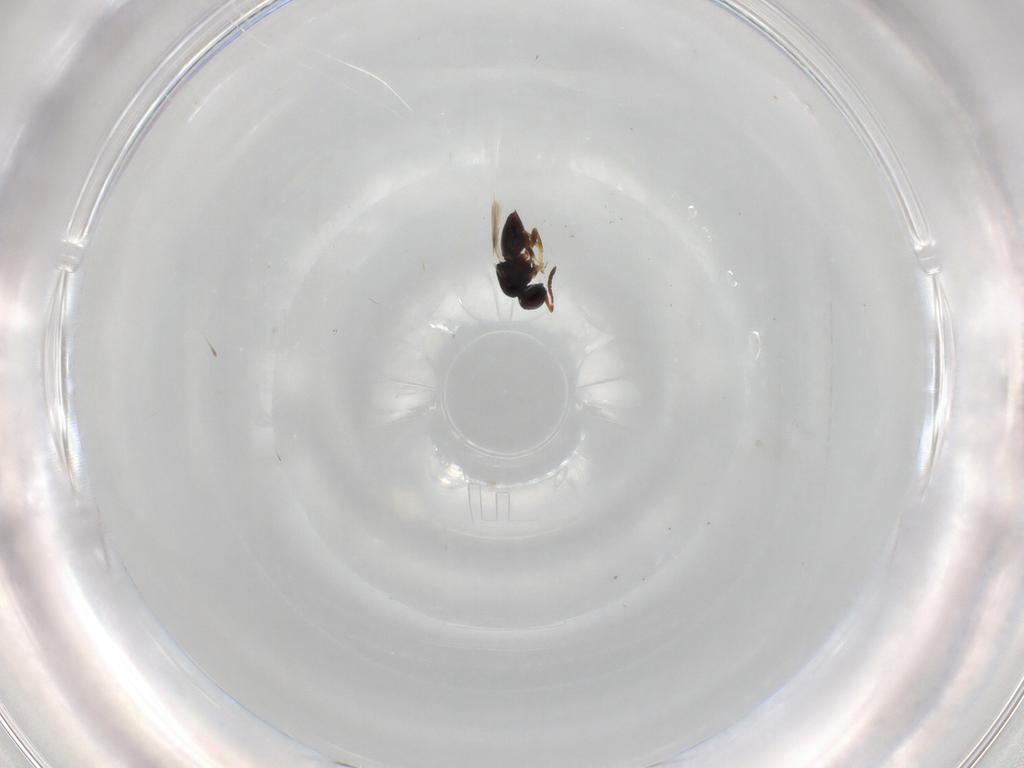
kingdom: Animalia
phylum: Arthropoda
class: Insecta
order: Hymenoptera
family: Ceraphronidae
